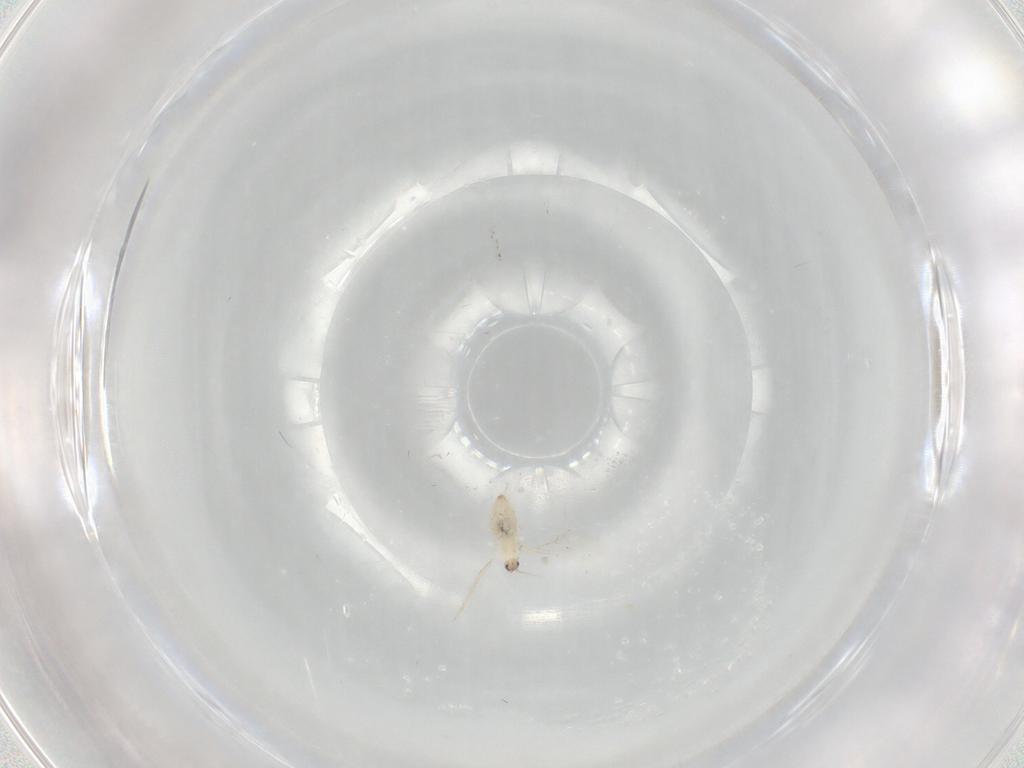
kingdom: Animalia
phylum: Arthropoda
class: Insecta
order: Diptera
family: Cecidomyiidae
